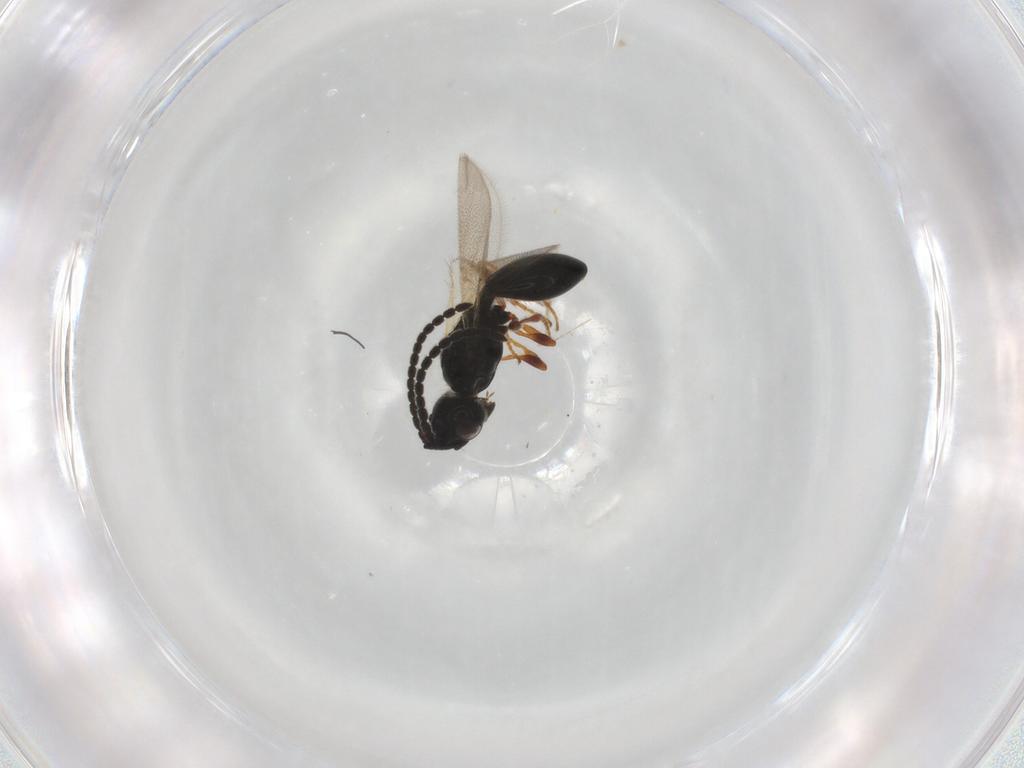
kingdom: Animalia
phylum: Arthropoda
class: Insecta
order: Hymenoptera
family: Diapriidae
